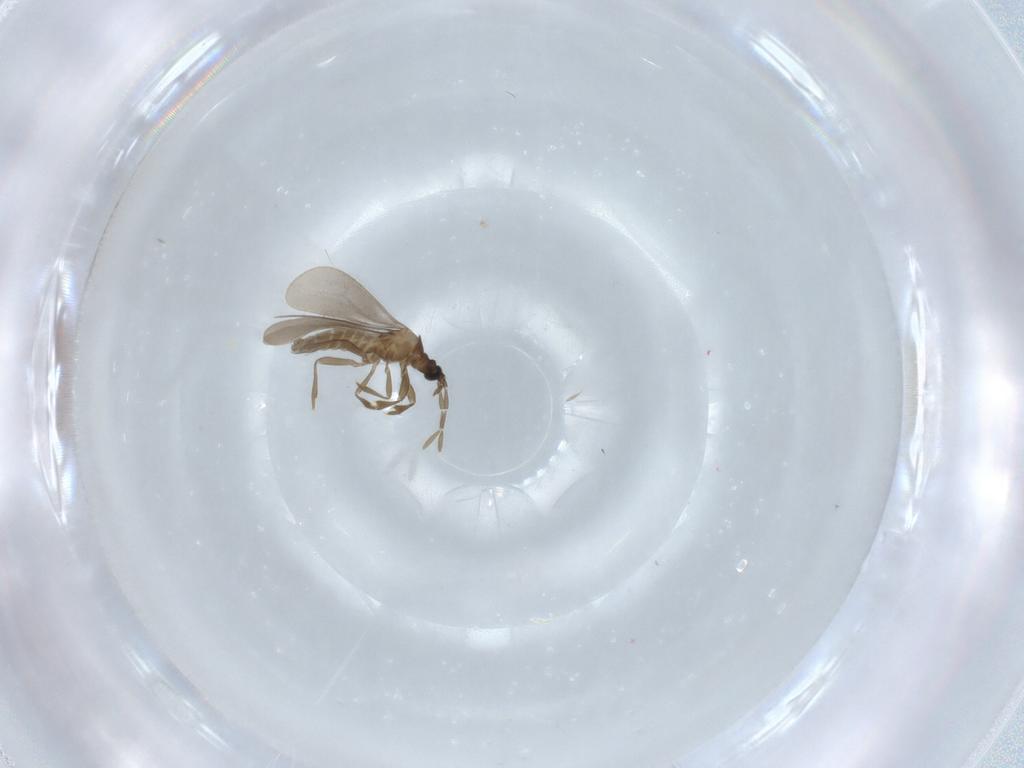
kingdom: Animalia
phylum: Arthropoda
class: Insecta
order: Hemiptera
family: Enicocephalidae
